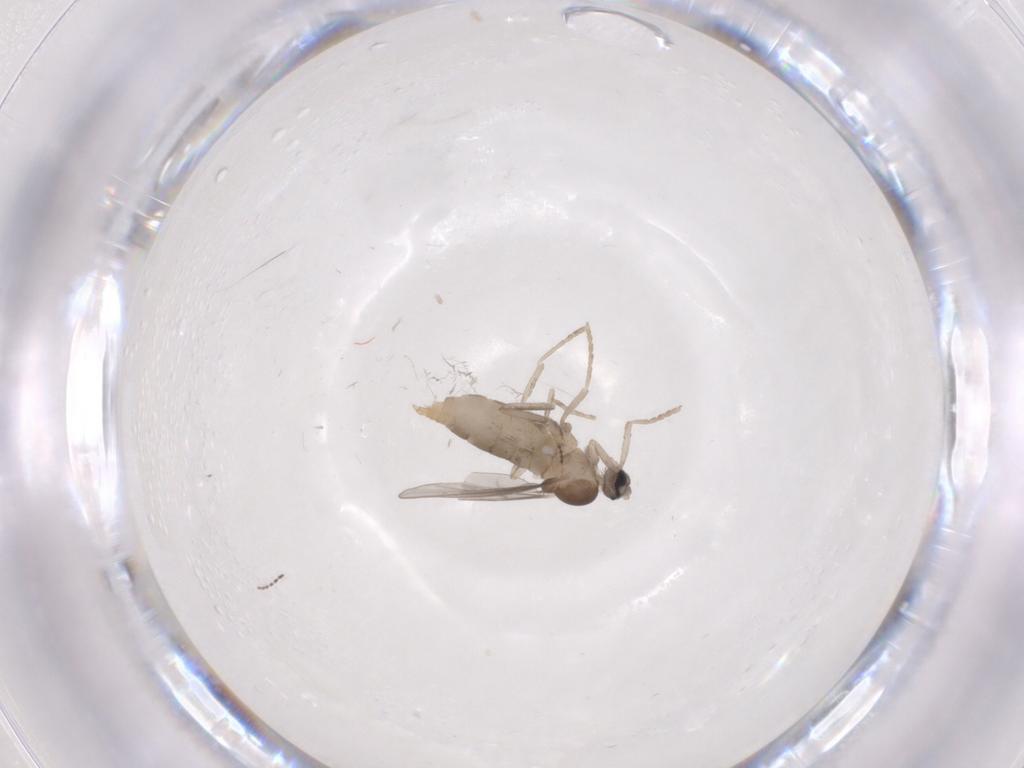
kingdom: Animalia
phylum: Arthropoda
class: Insecta
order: Diptera
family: Cecidomyiidae
